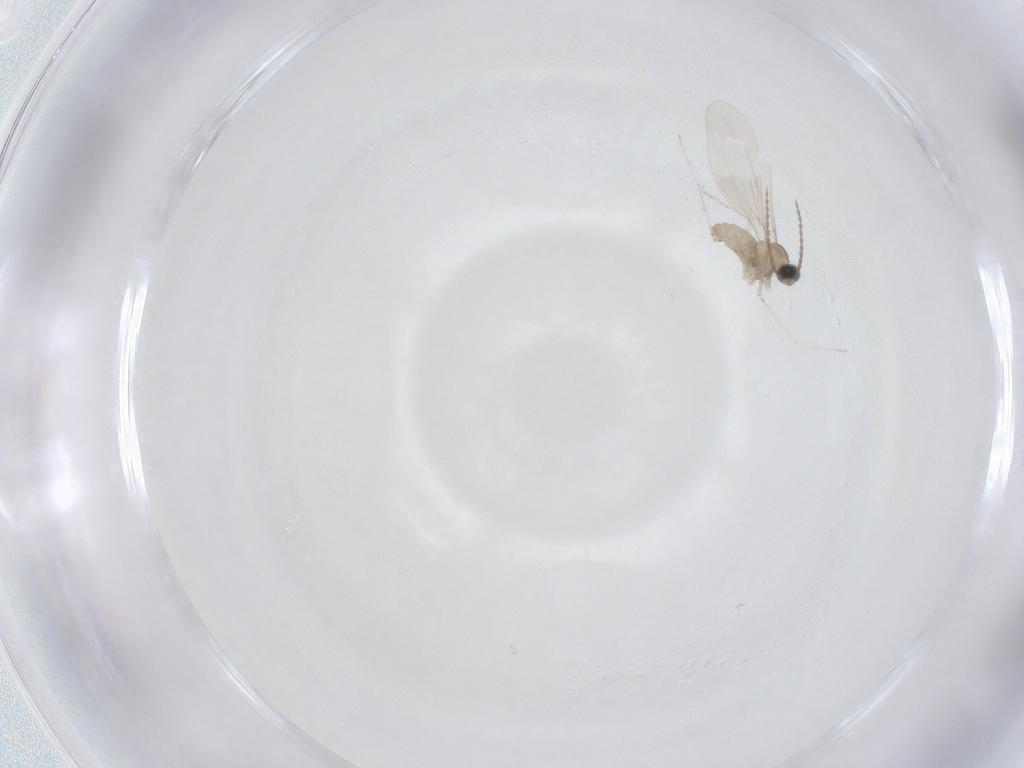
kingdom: Animalia
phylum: Arthropoda
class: Insecta
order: Diptera
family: Cecidomyiidae
